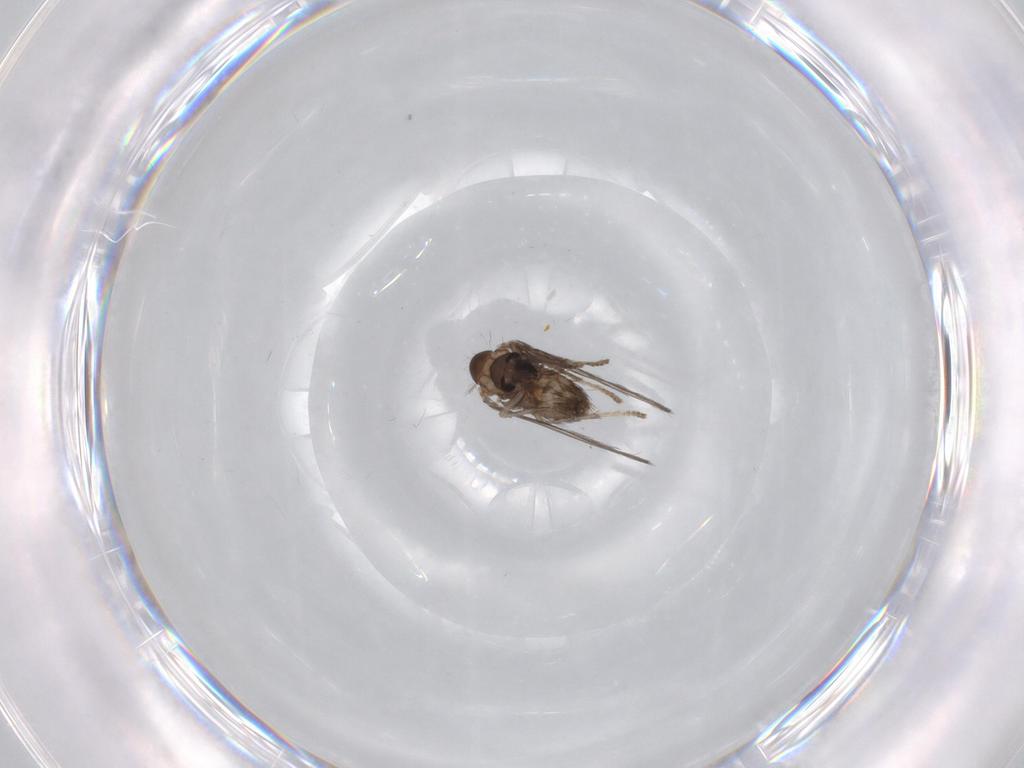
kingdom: Animalia
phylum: Arthropoda
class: Insecta
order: Diptera
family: Psychodidae
